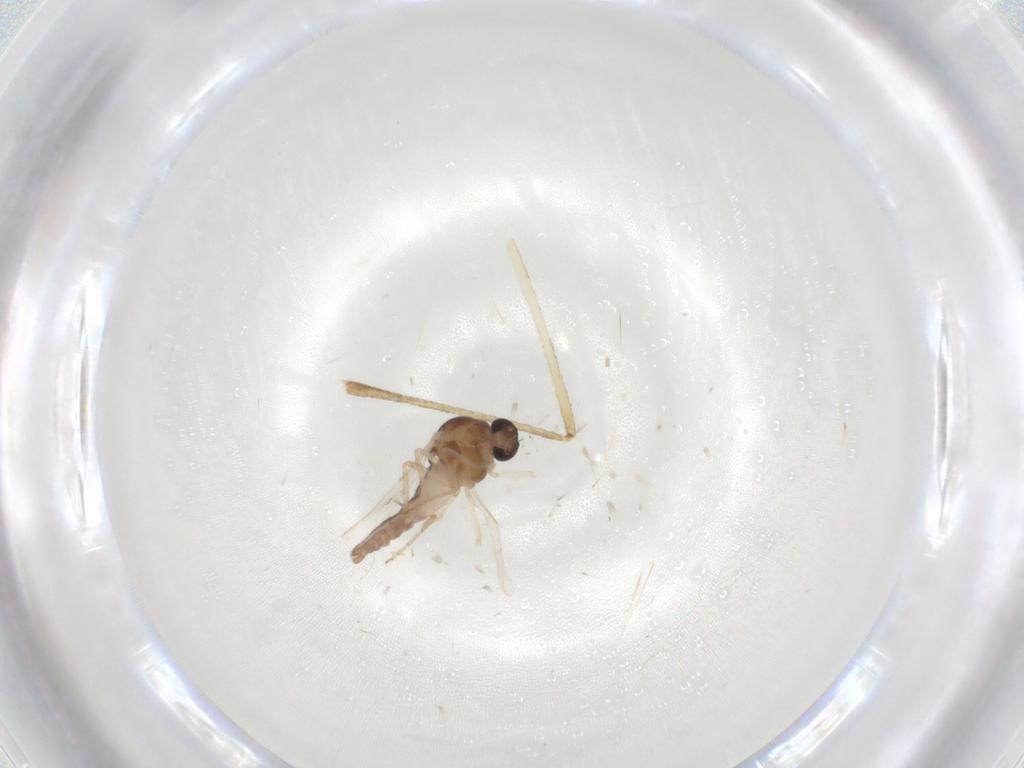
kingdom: Animalia
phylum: Arthropoda
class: Insecta
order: Diptera
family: Ceratopogonidae
